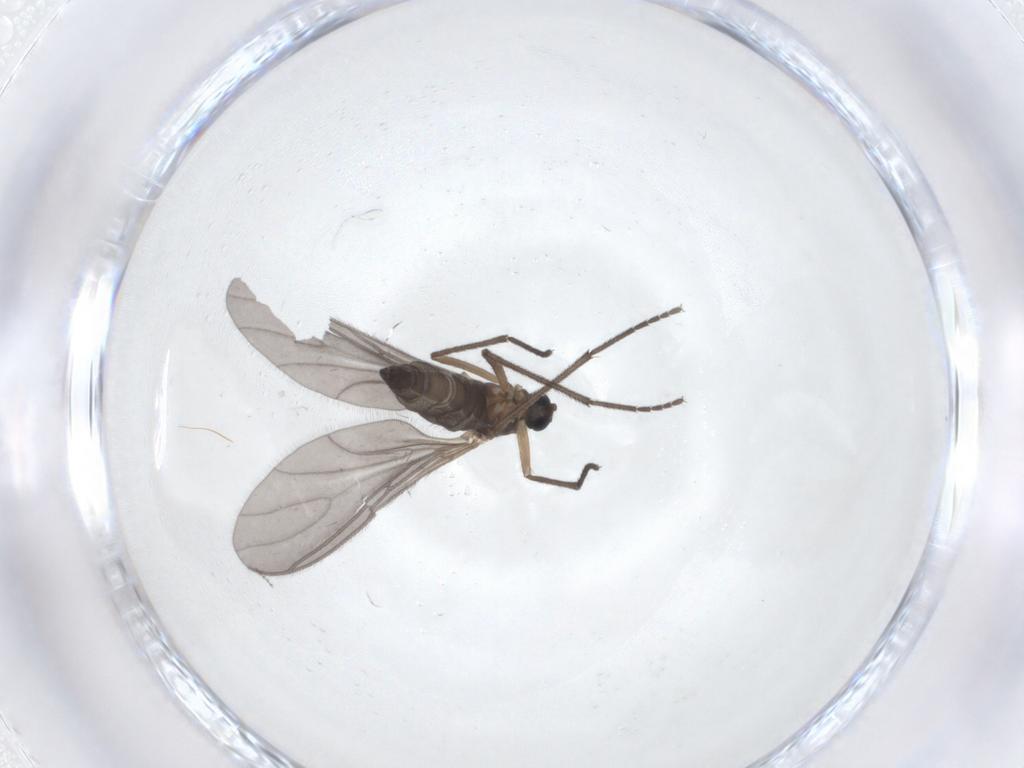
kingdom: Animalia
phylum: Arthropoda
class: Insecta
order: Diptera
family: Sciaridae
